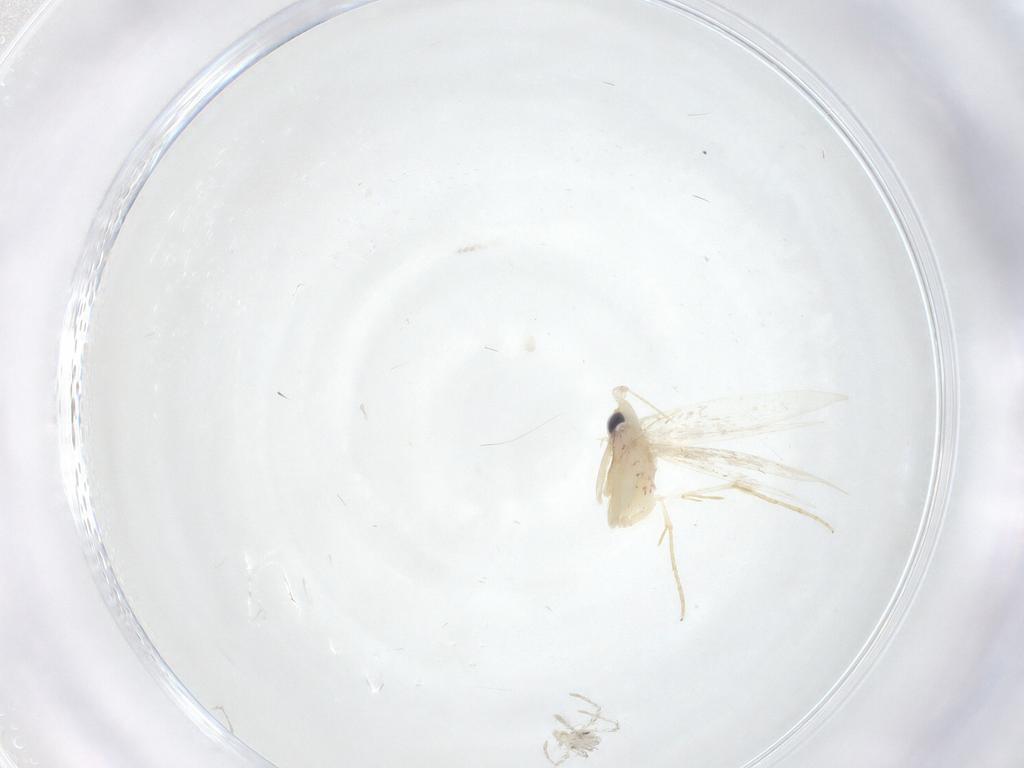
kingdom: Animalia
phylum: Arthropoda
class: Insecta
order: Lepidoptera
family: Tineidae
